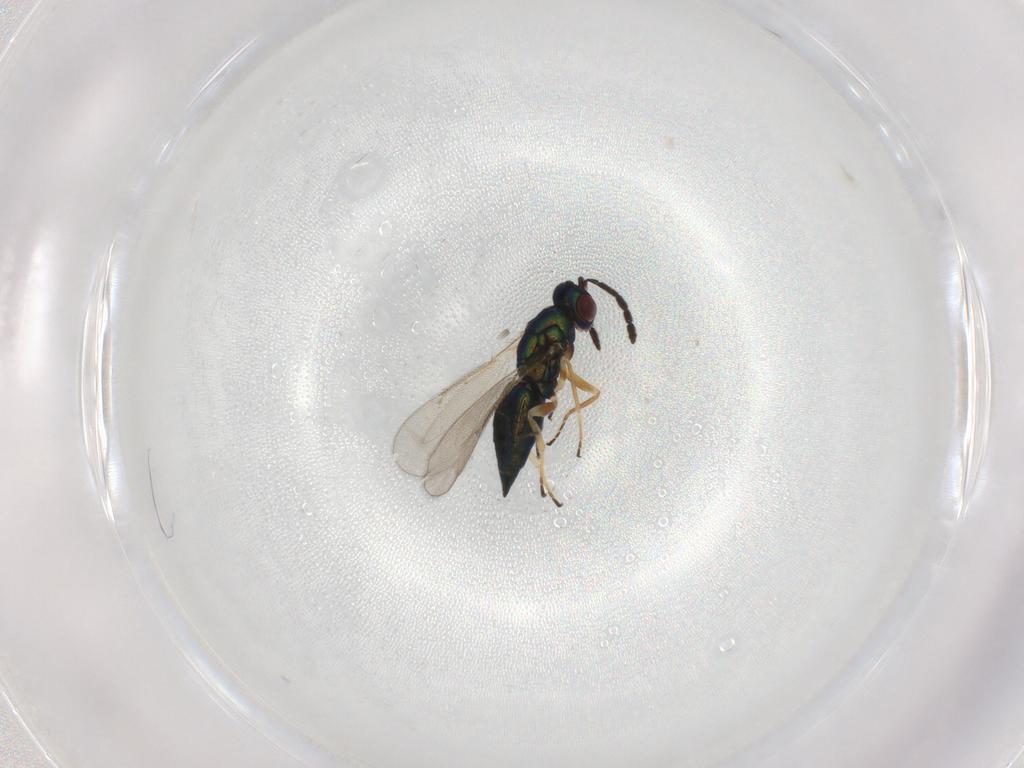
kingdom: Animalia
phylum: Arthropoda
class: Insecta
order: Hymenoptera
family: Eulophidae
